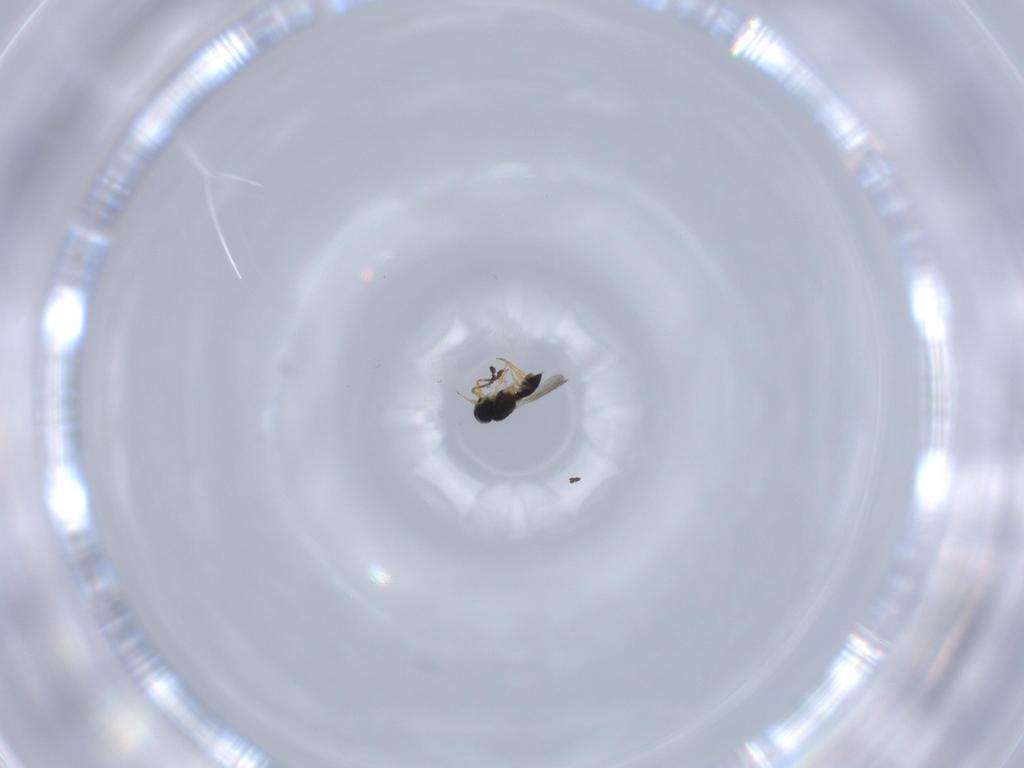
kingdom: Animalia
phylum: Arthropoda
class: Insecta
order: Hymenoptera
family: Scelionidae
